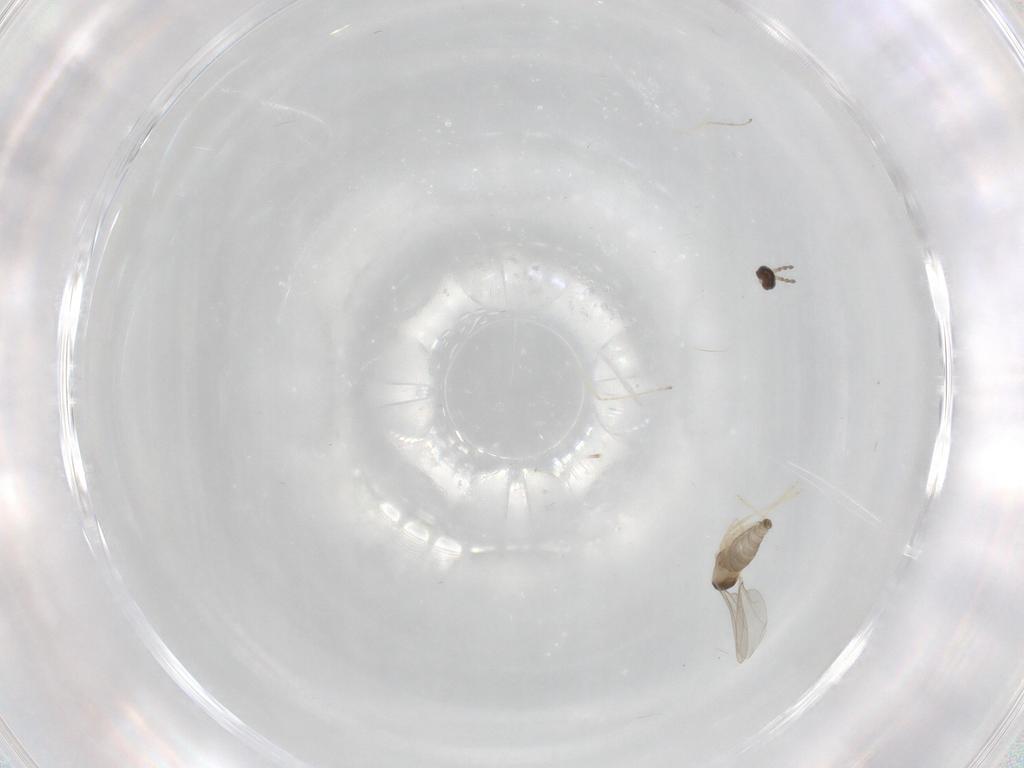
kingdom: Animalia
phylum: Arthropoda
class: Insecta
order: Diptera
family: Cecidomyiidae
